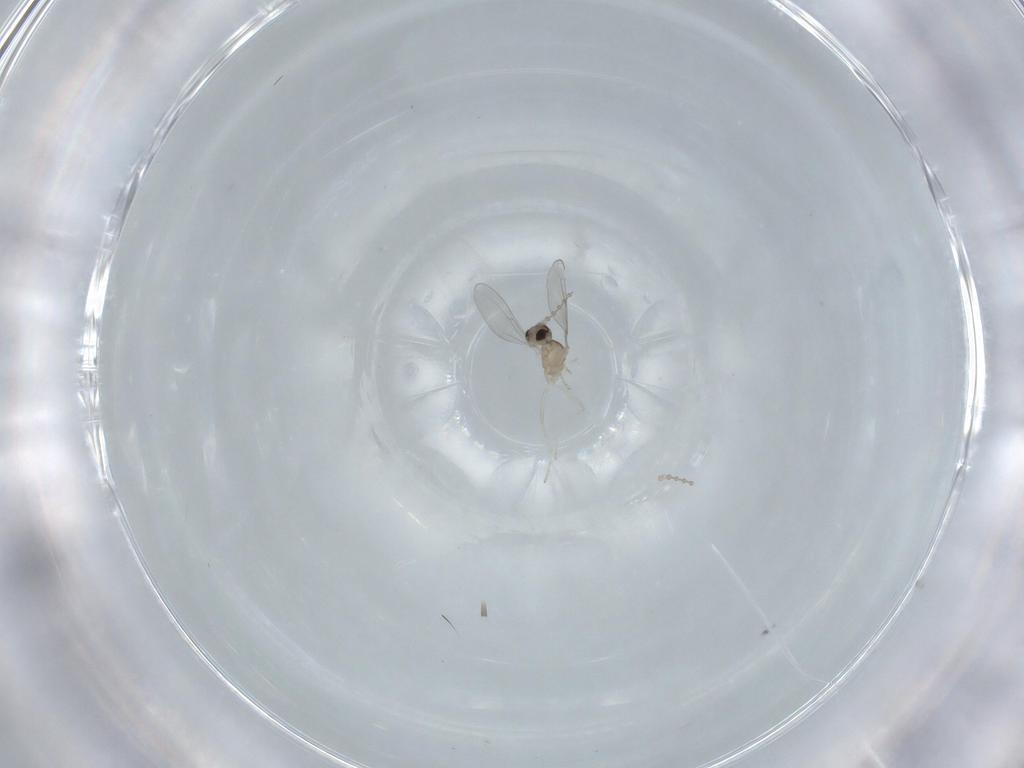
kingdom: Animalia
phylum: Arthropoda
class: Insecta
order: Diptera
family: Cecidomyiidae
